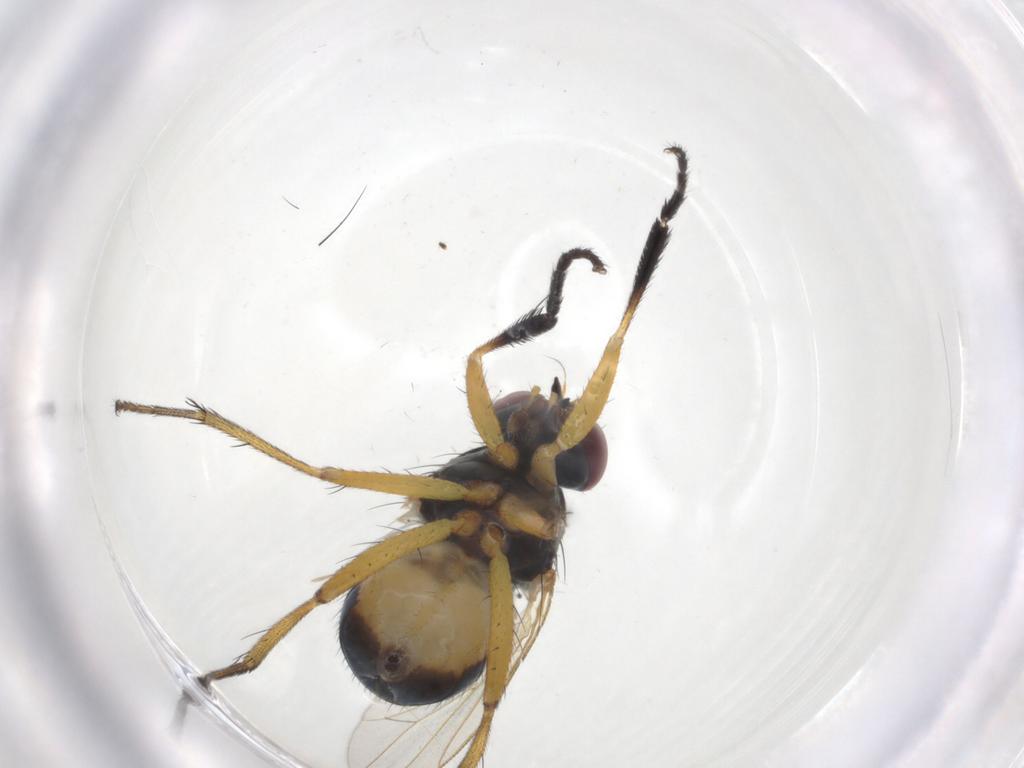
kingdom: Animalia
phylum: Arthropoda
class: Insecta
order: Diptera
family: Muscidae
